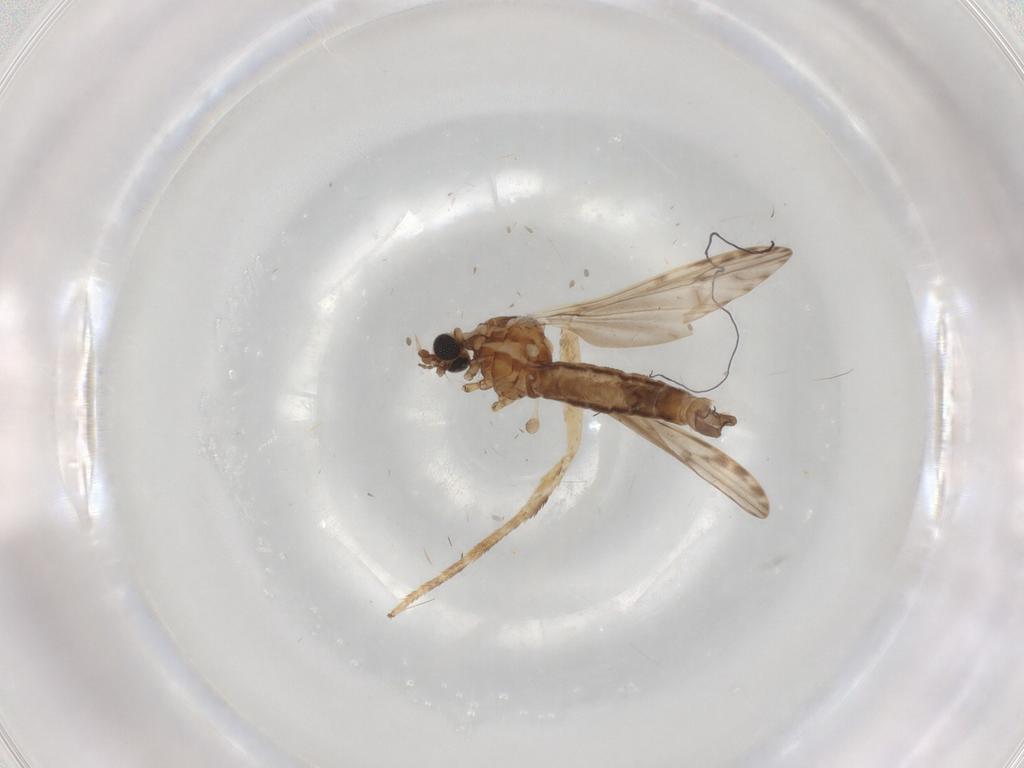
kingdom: Animalia
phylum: Arthropoda
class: Insecta
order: Diptera
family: Limoniidae
